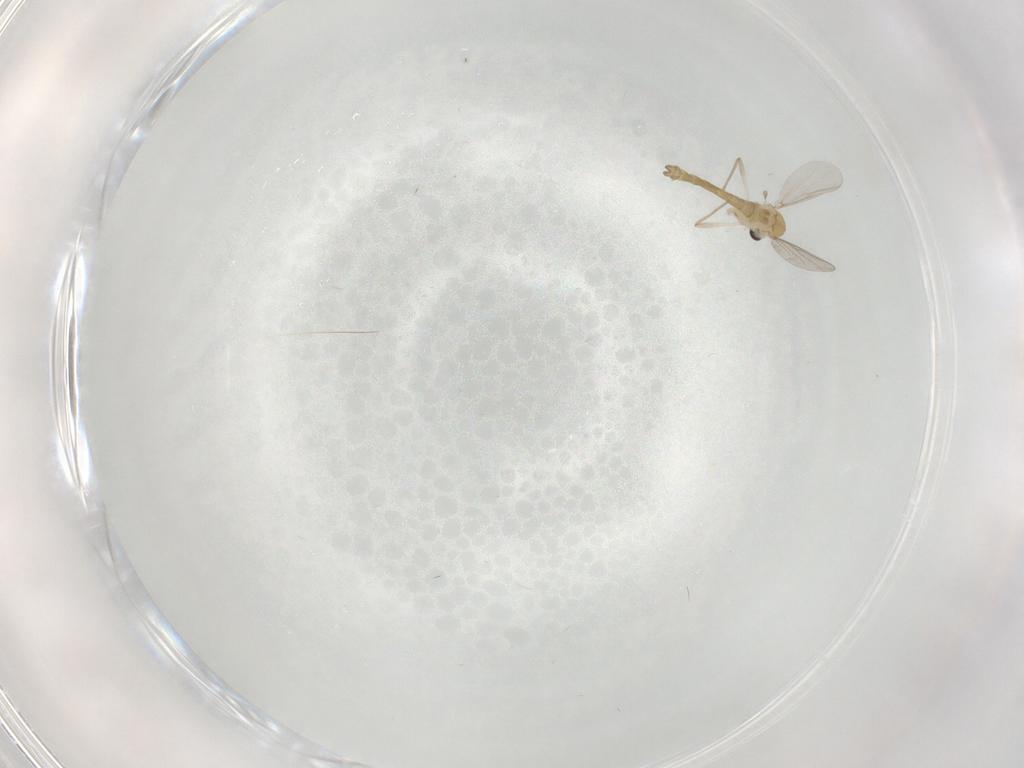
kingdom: Animalia
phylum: Arthropoda
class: Insecta
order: Diptera
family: Chironomidae
